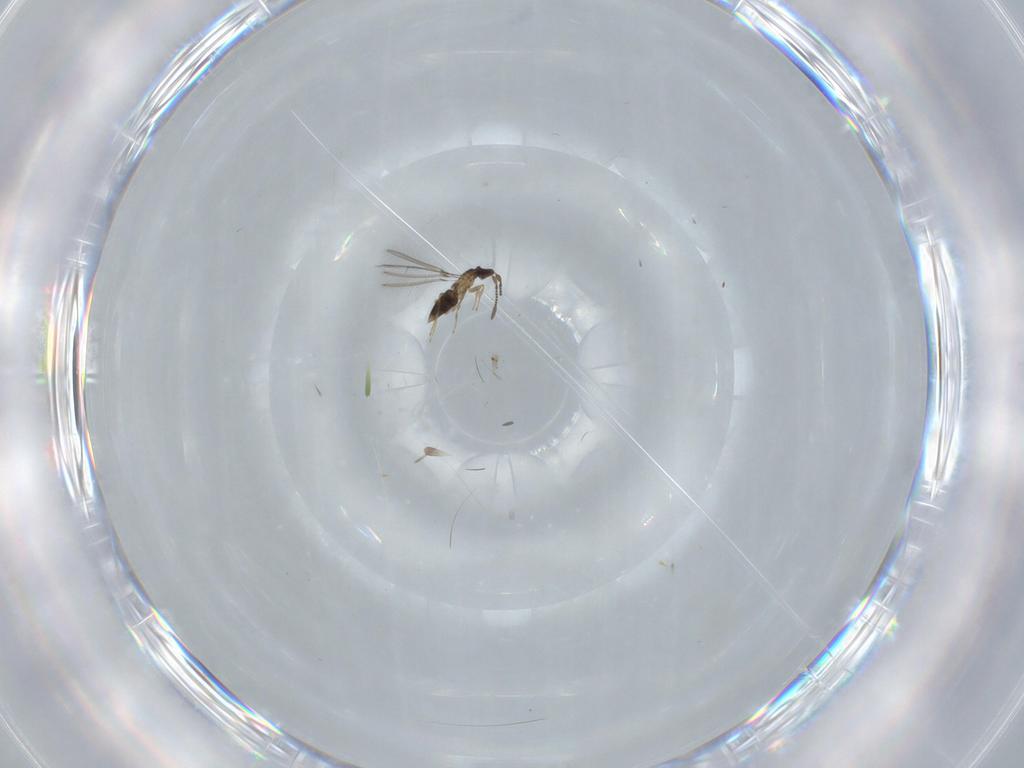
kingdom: Animalia
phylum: Arthropoda
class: Insecta
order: Hymenoptera
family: Mymaridae
